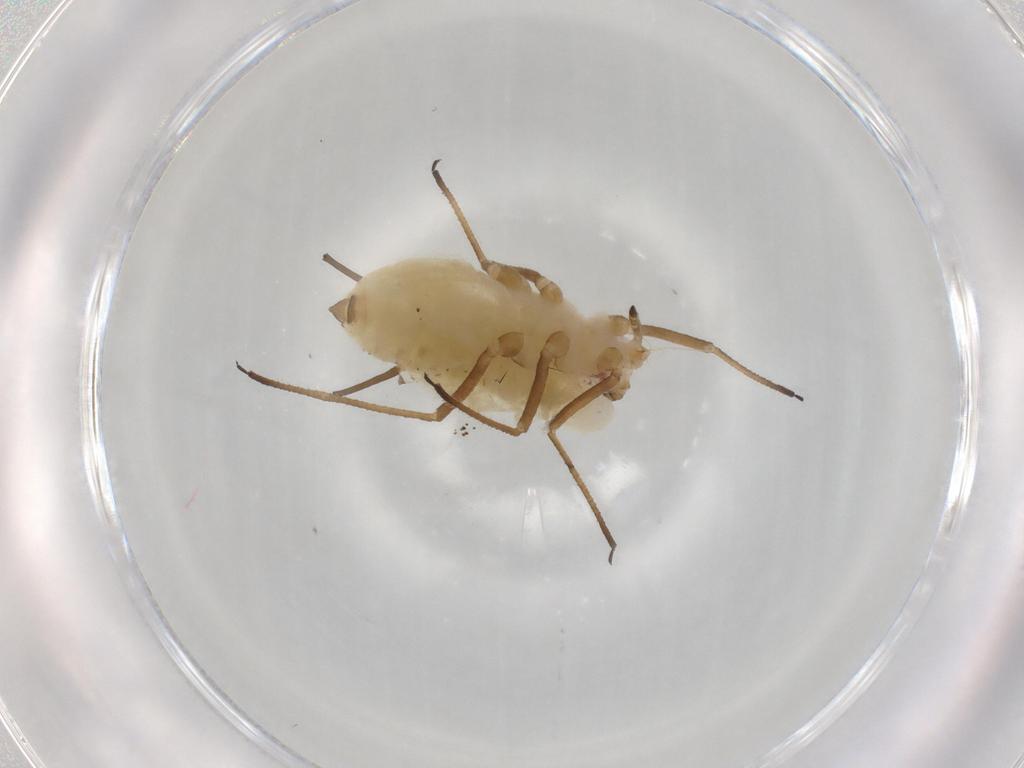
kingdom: Animalia
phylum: Arthropoda
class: Insecta
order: Hemiptera
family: Aphididae
